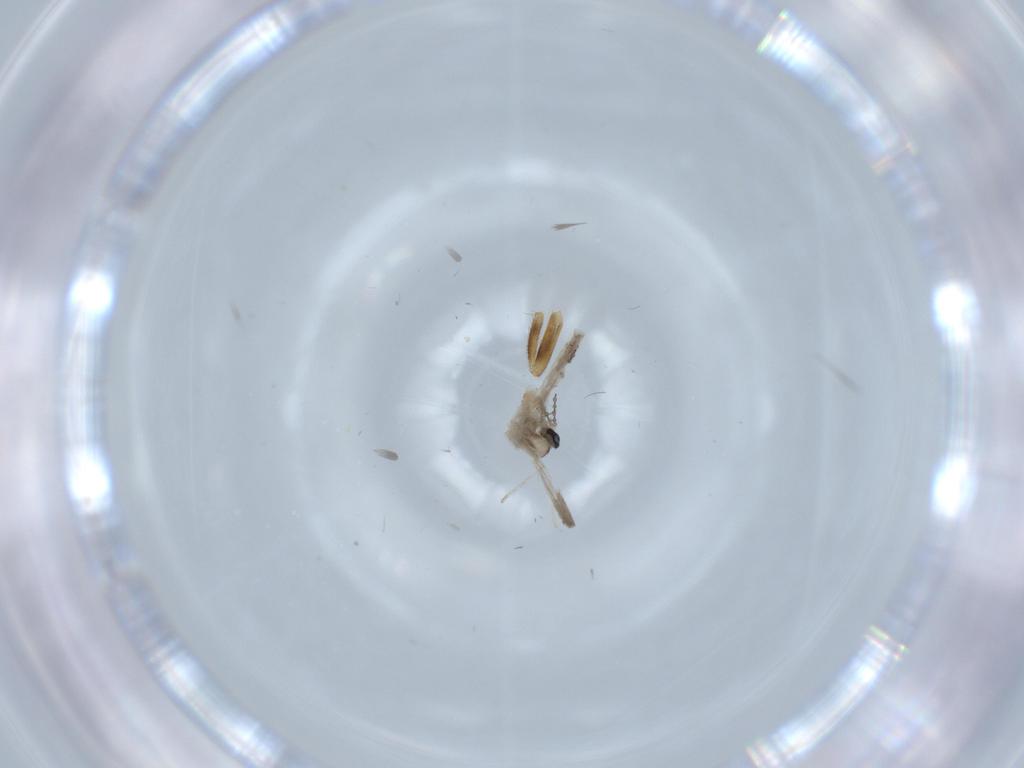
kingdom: Animalia
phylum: Arthropoda
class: Insecta
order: Diptera
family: Chloropidae
